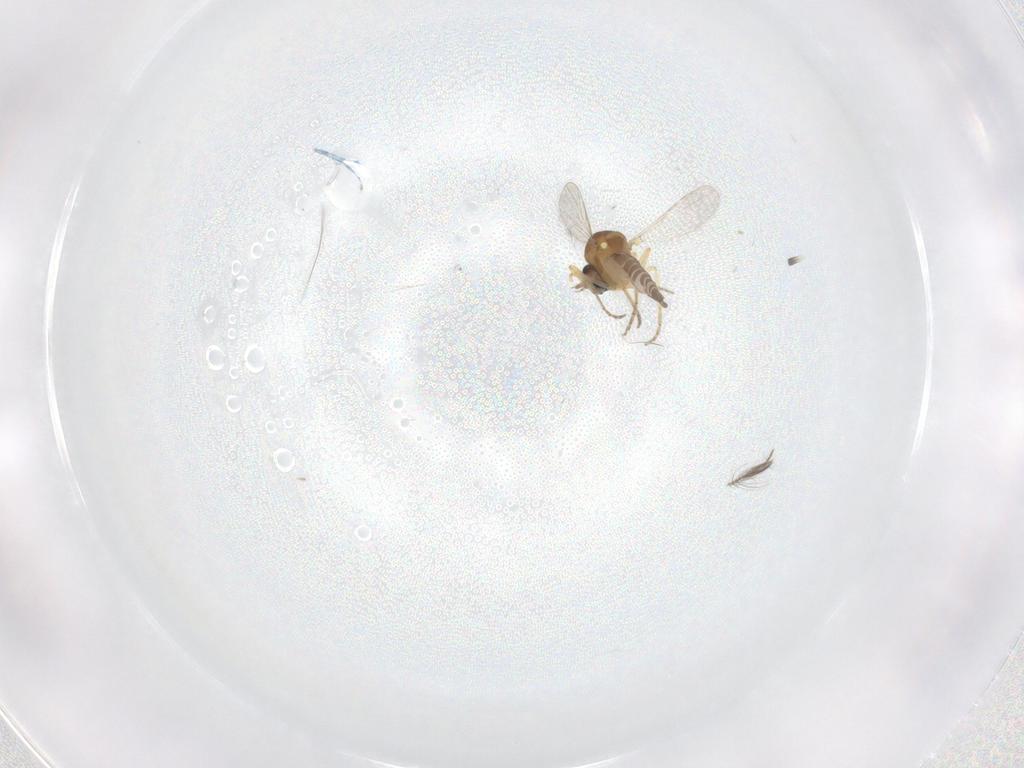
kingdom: Animalia
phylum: Arthropoda
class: Insecta
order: Diptera
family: Ceratopogonidae
